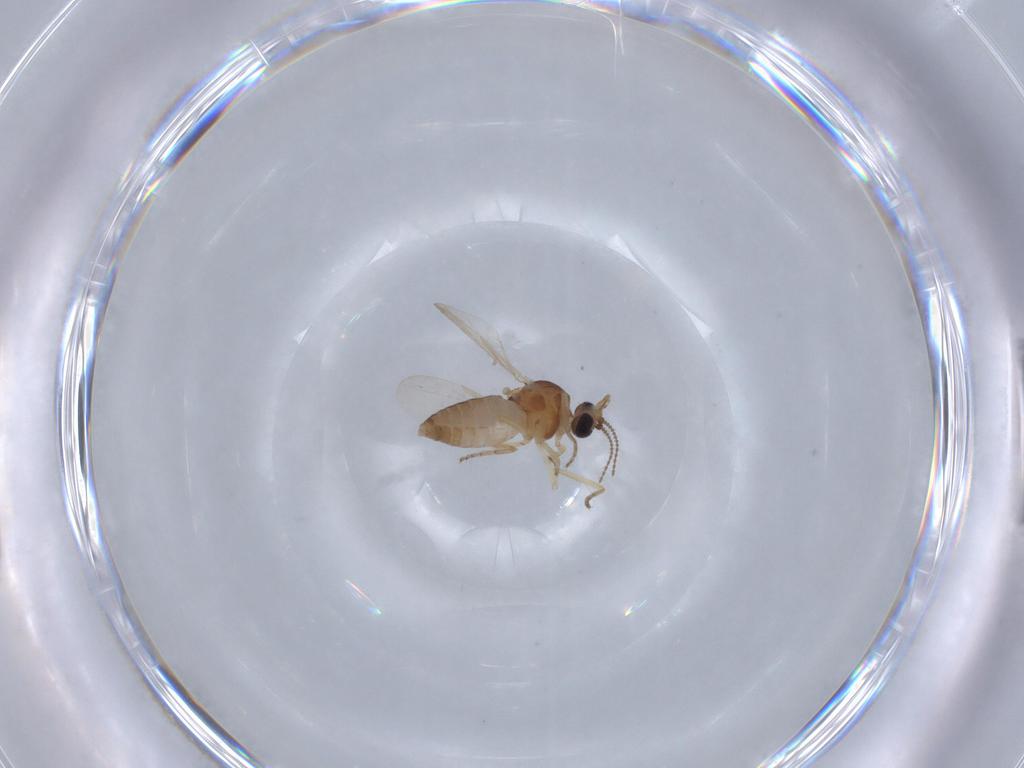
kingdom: Animalia
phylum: Arthropoda
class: Insecta
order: Diptera
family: Ceratopogonidae
